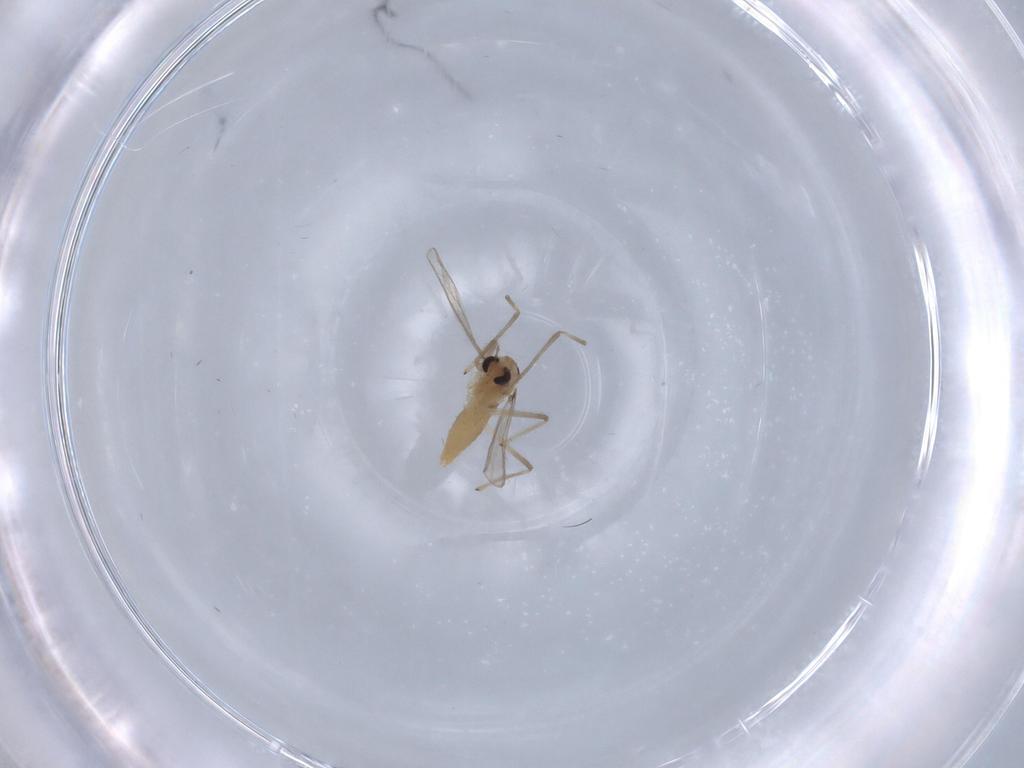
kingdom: Animalia
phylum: Arthropoda
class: Insecta
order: Diptera
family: Chironomidae
